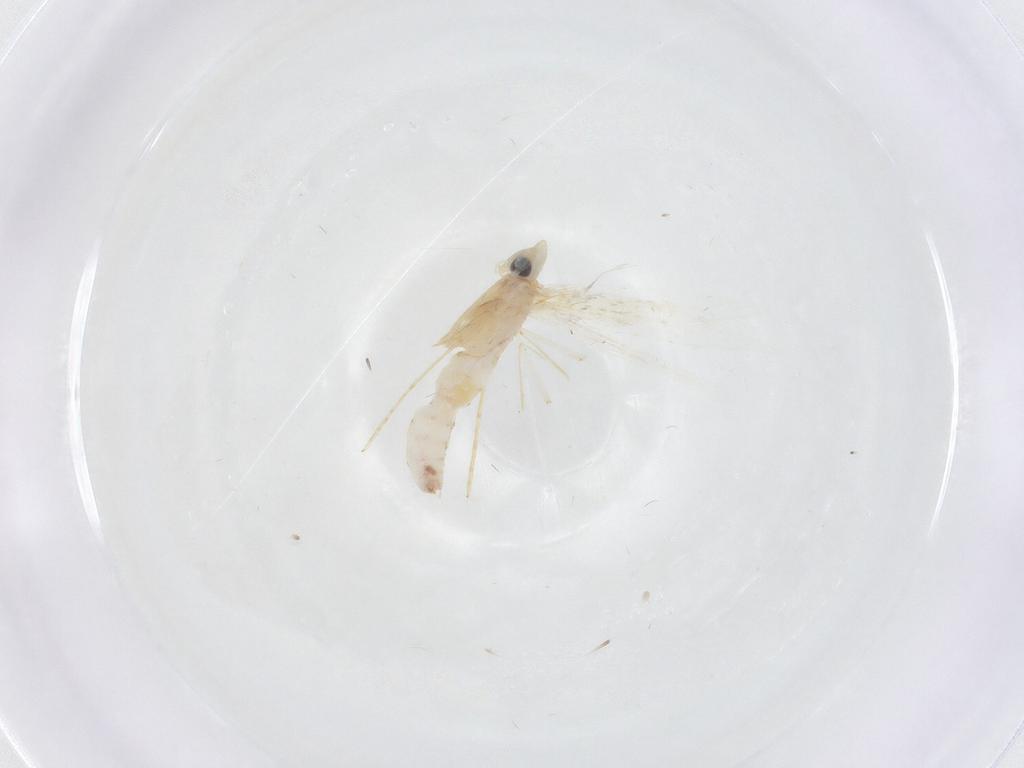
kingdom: Animalia
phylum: Arthropoda
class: Insecta
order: Lepidoptera
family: Tineidae
